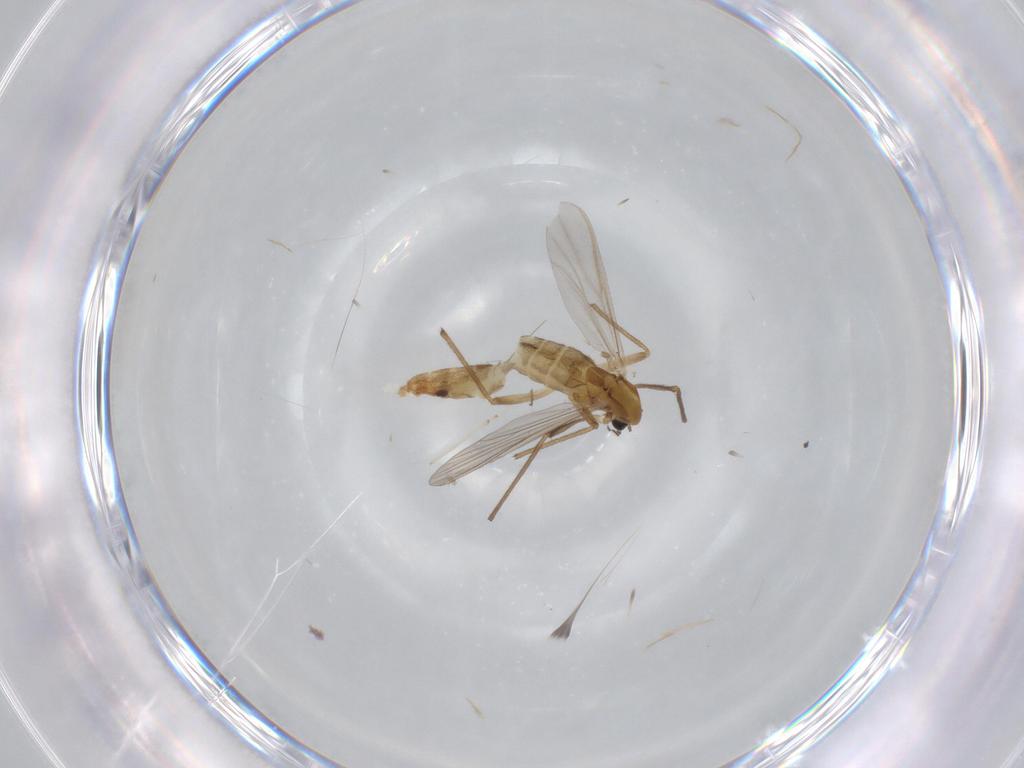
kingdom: Animalia
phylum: Arthropoda
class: Insecta
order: Diptera
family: Cecidomyiidae
